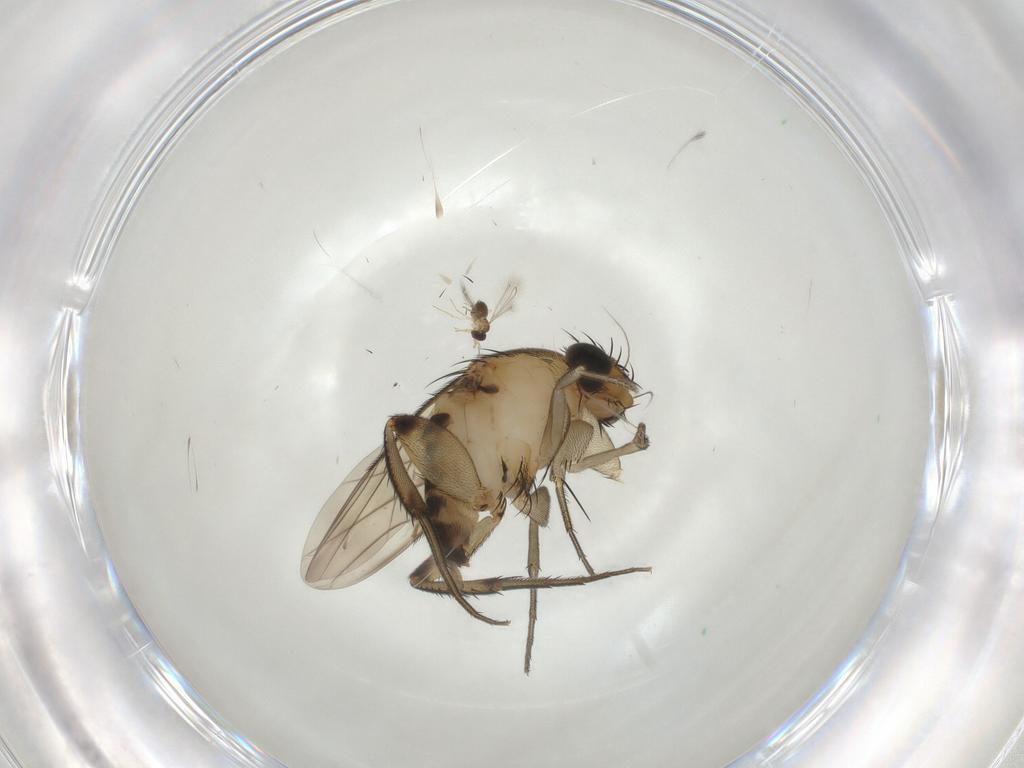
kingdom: Animalia
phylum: Arthropoda
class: Insecta
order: Diptera
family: Phoridae
